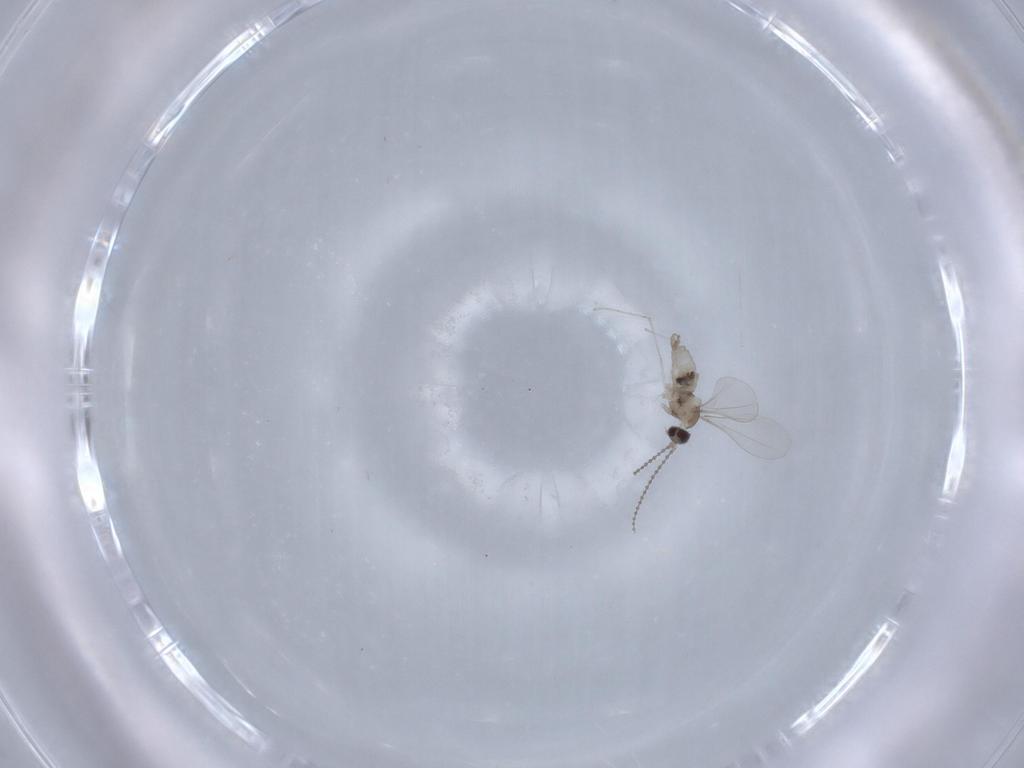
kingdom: Animalia
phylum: Arthropoda
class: Insecta
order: Diptera
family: Cecidomyiidae
